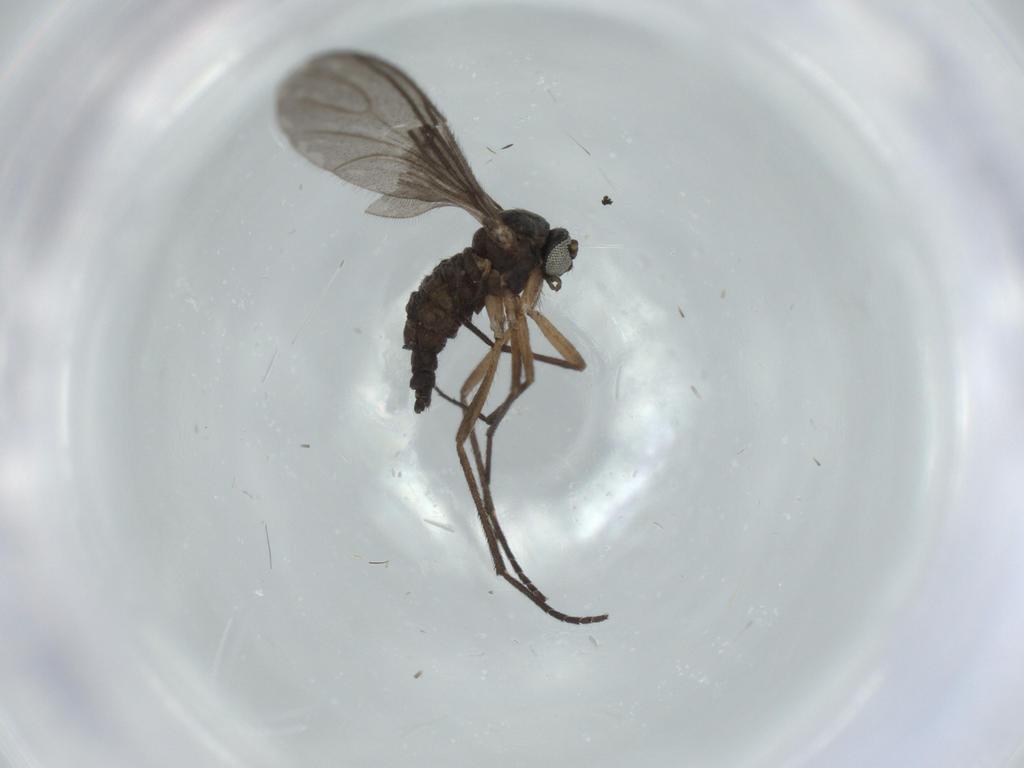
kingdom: Animalia
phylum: Arthropoda
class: Insecta
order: Diptera
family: Sciaridae
